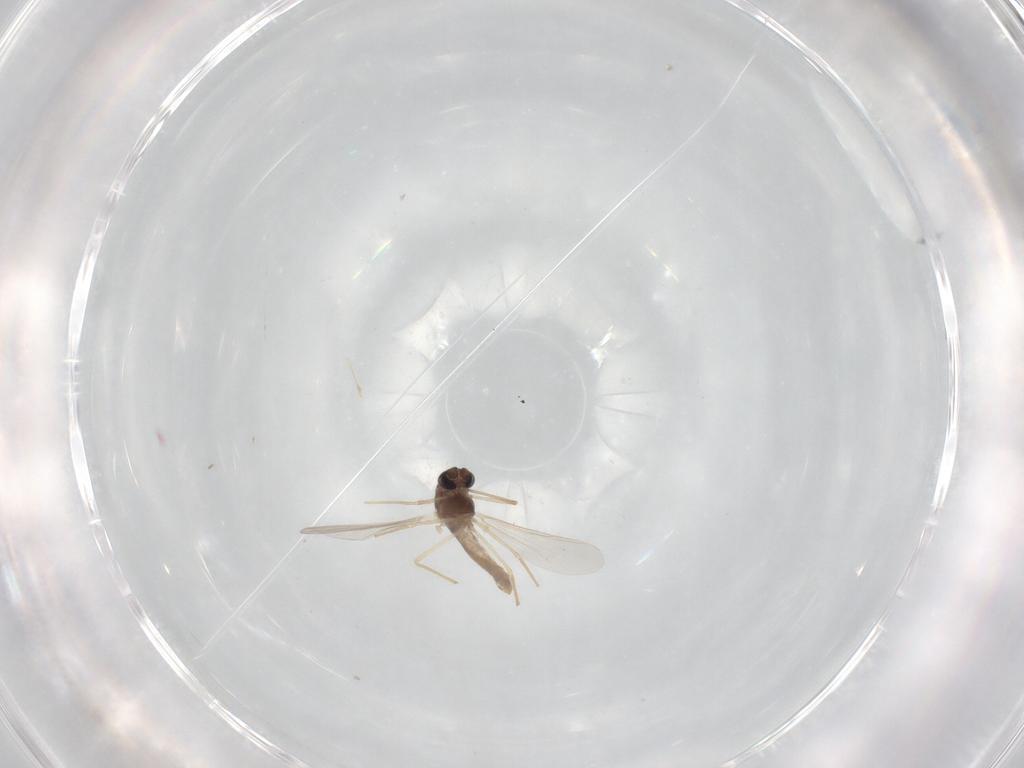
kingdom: Animalia
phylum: Arthropoda
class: Insecta
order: Diptera
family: Chironomidae
